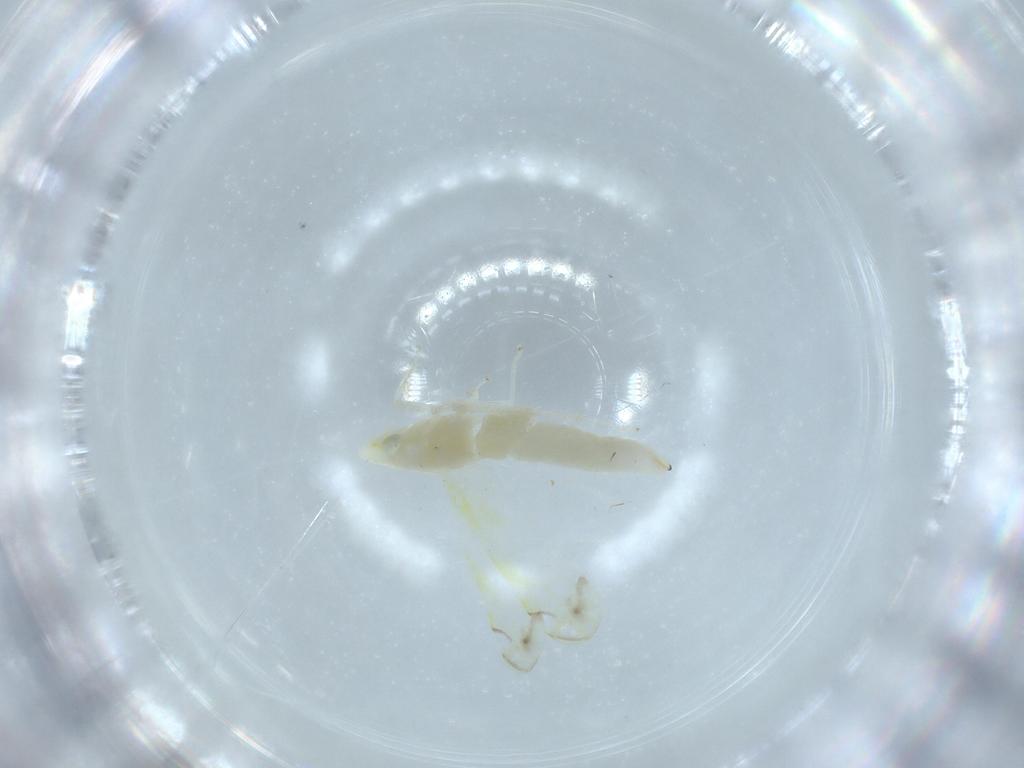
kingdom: Animalia
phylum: Arthropoda
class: Insecta
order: Hemiptera
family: Cicadellidae
